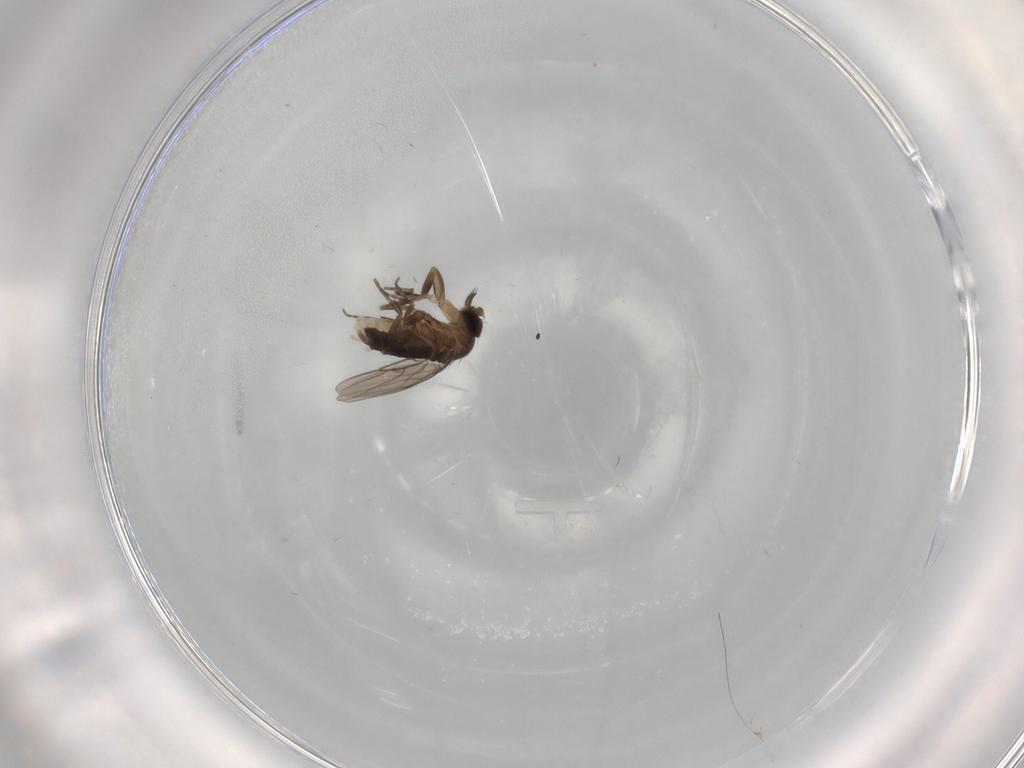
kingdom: Animalia
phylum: Arthropoda
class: Insecta
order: Diptera
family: Phoridae
